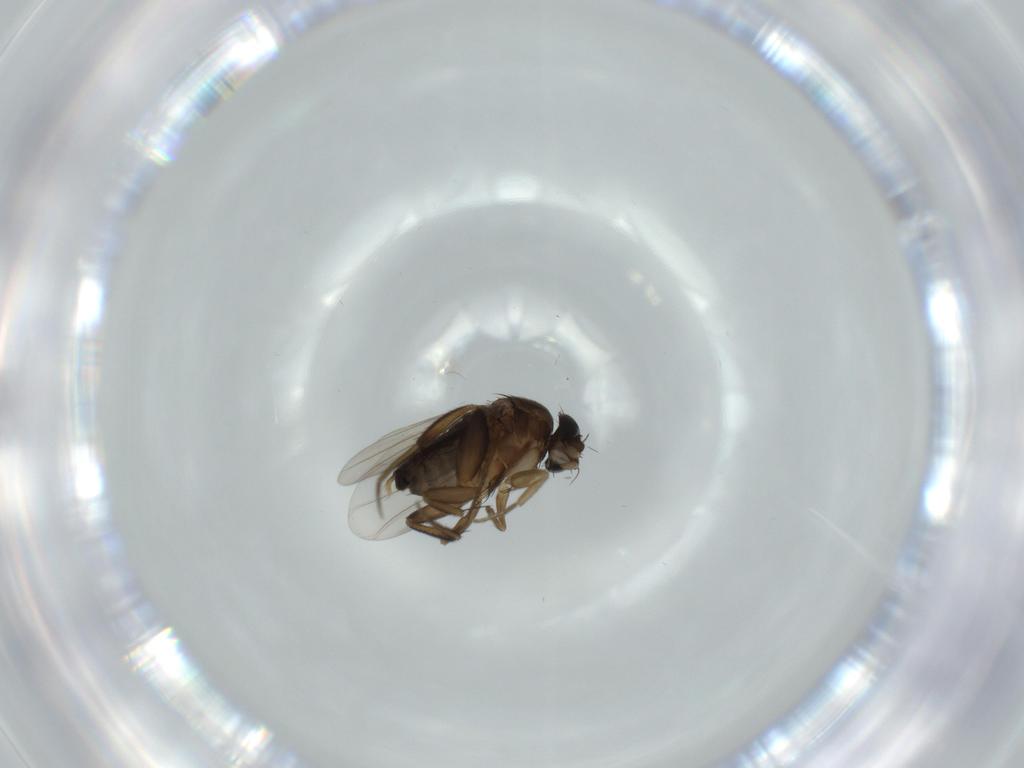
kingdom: Animalia
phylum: Arthropoda
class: Insecta
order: Diptera
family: Phoridae
